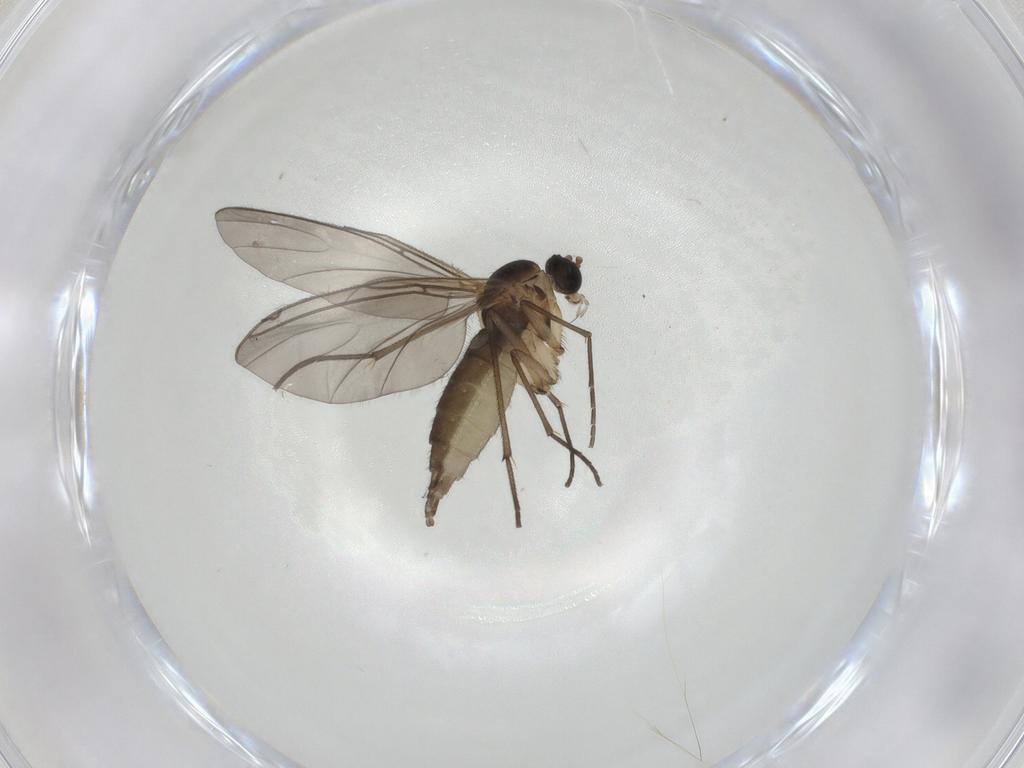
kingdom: Animalia
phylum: Arthropoda
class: Insecta
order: Diptera
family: Sciaridae
